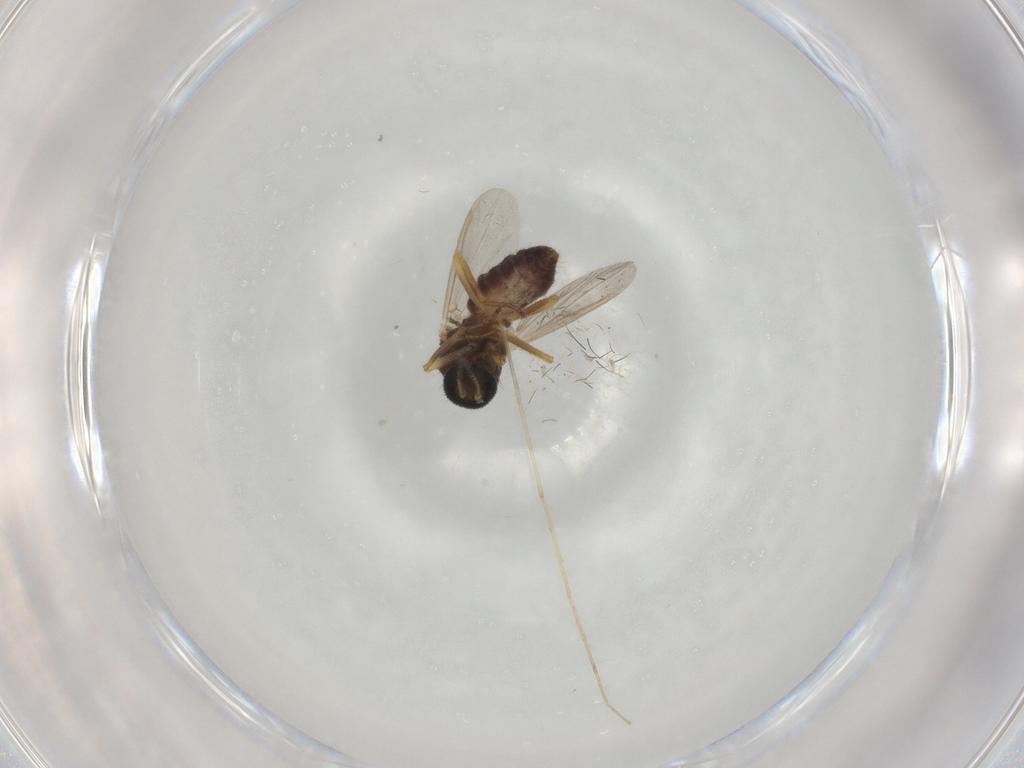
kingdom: Animalia
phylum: Arthropoda
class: Insecta
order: Diptera
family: Ceratopogonidae
